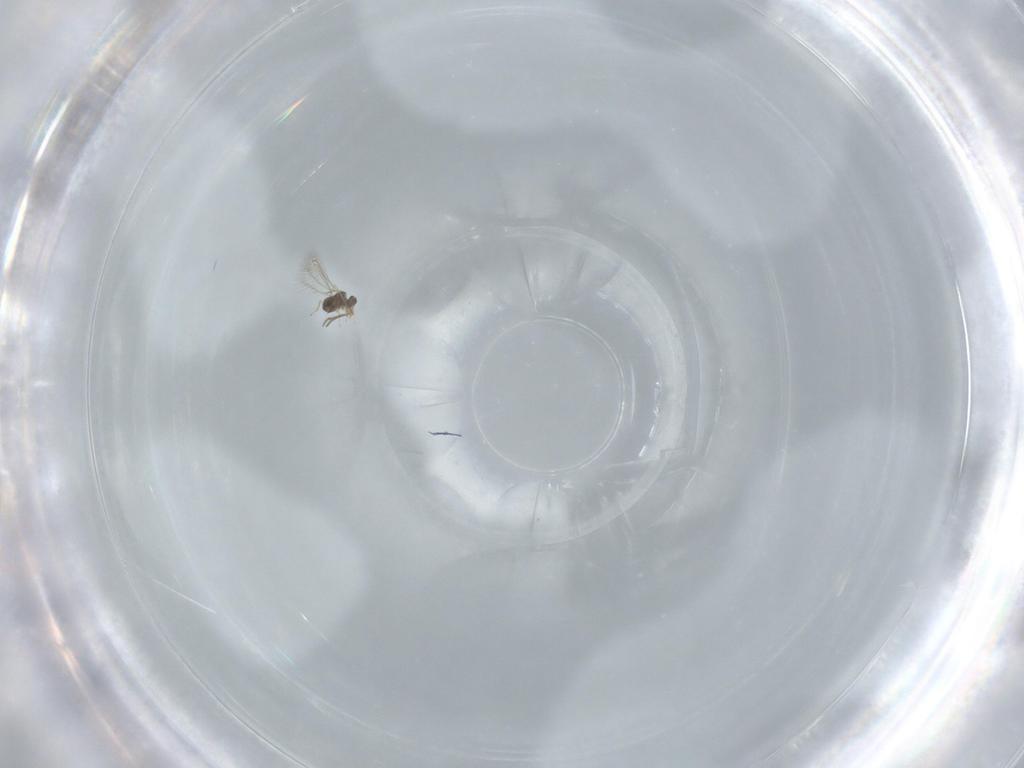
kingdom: Animalia
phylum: Arthropoda
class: Insecta
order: Hymenoptera
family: Scelionidae
